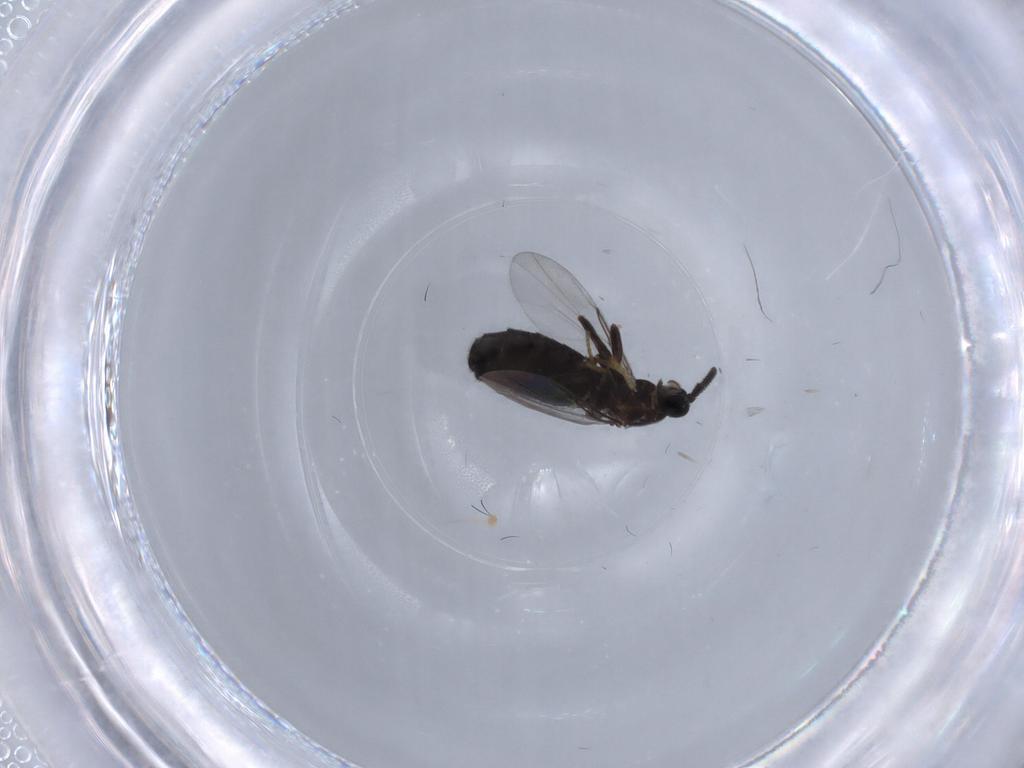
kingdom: Animalia
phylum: Arthropoda
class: Insecta
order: Diptera
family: Scatopsidae
